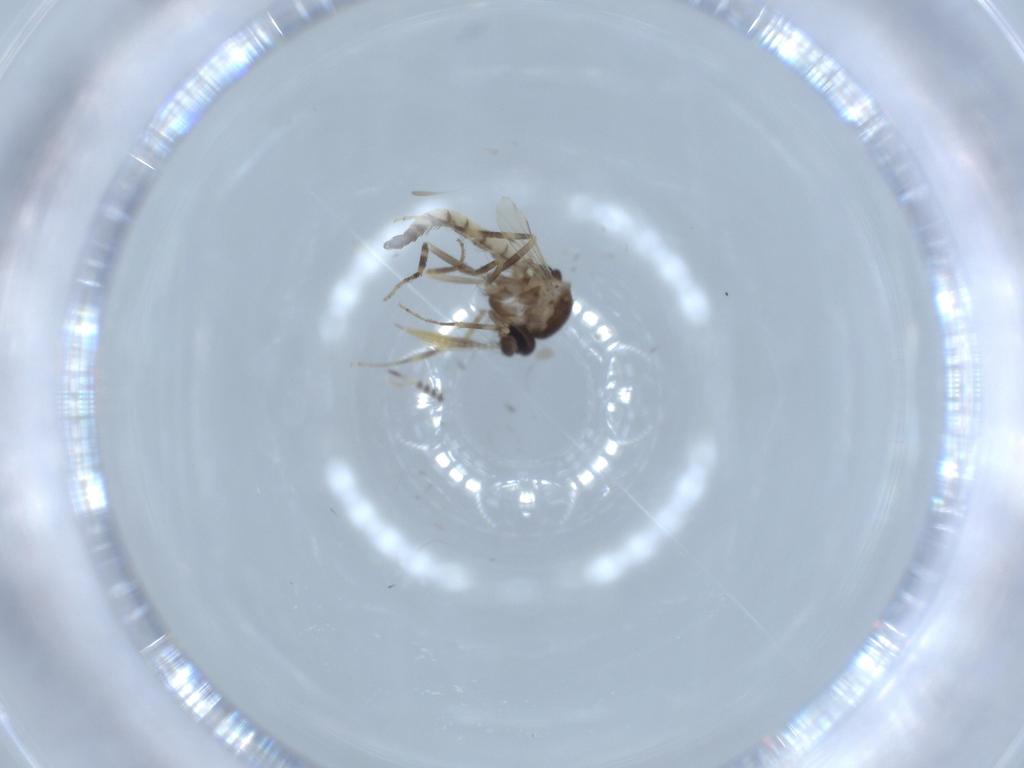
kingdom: Animalia
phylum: Arthropoda
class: Insecta
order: Diptera
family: Ceratopogonidae
